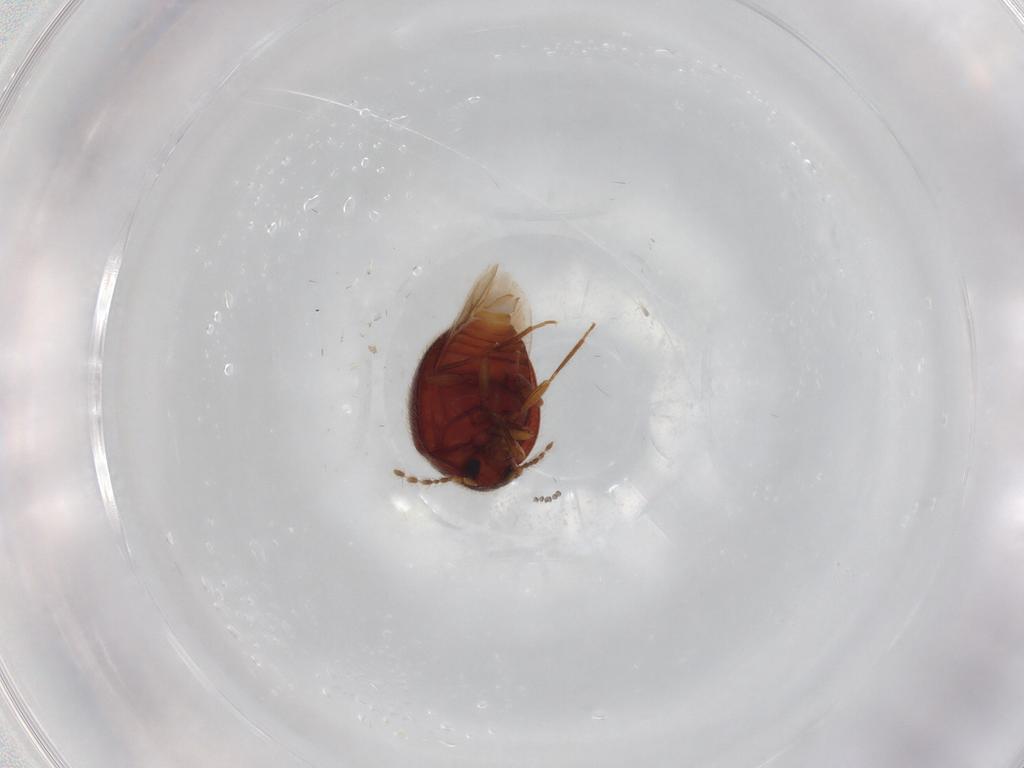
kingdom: Animalia
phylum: Arthropoda
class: Insecta
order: Coleoptera
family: Anamorphidae
